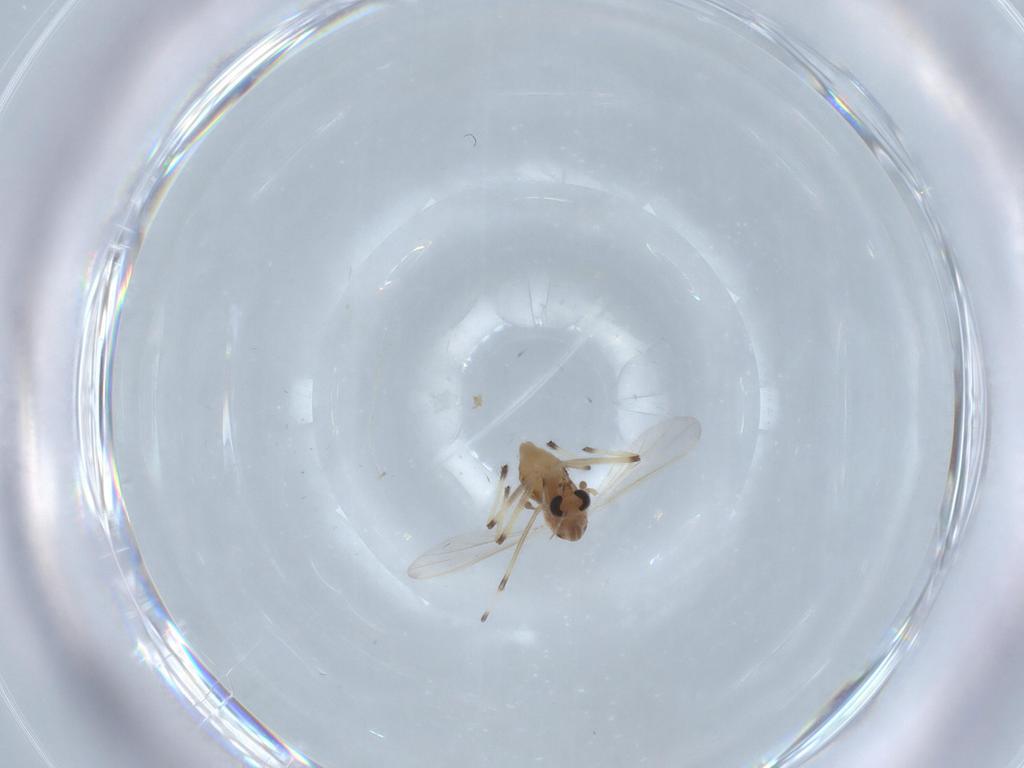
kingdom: Animalia
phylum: Arthropoda
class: Insecta
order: Diptera
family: Chironomidae
